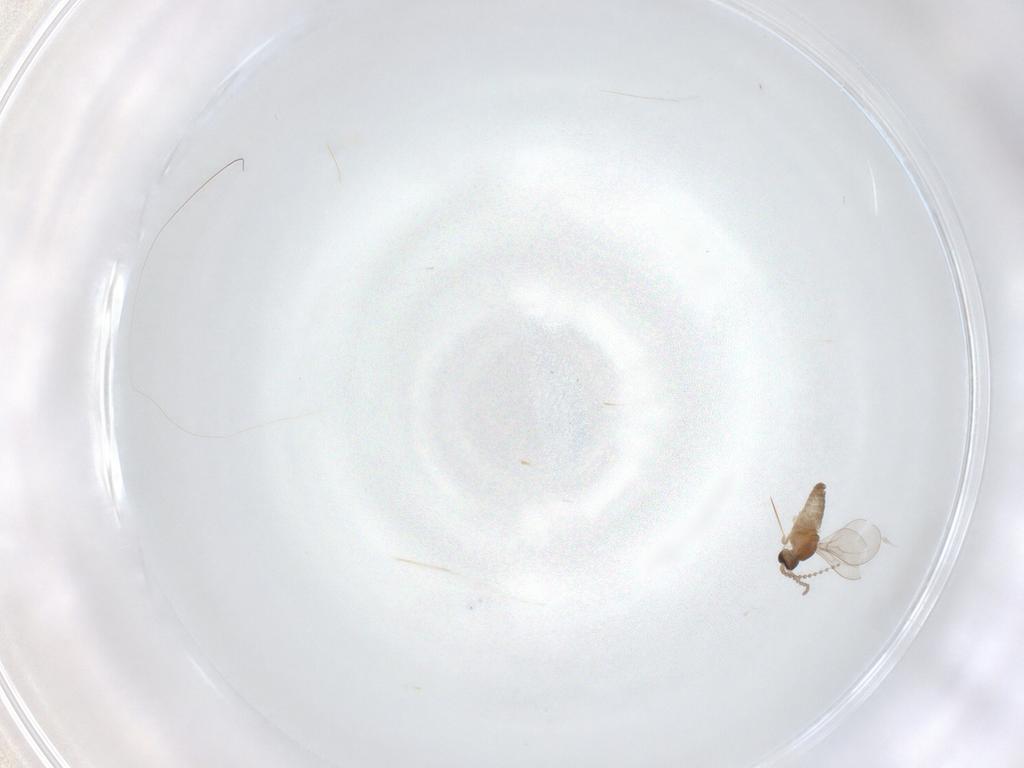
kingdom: Animalia
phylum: Arthropoda
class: Insecta
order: Diptera
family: Cecidomyiidae
